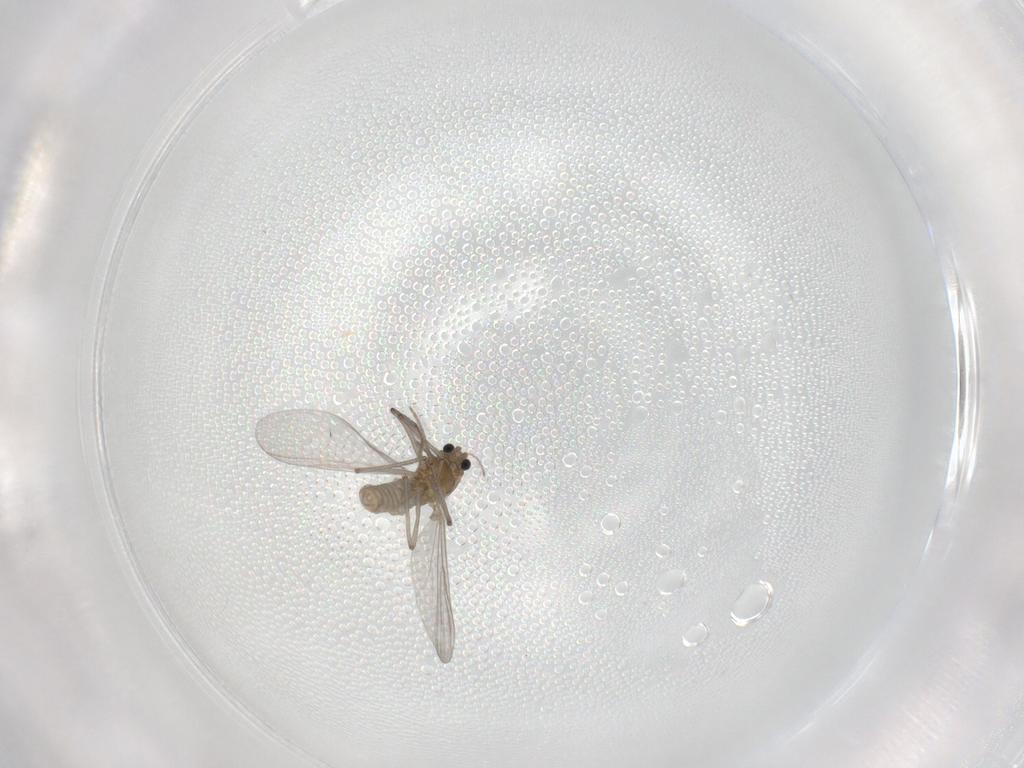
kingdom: Animalia
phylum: Arthropoda
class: Insecta
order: Diptera
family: Chironomidae
